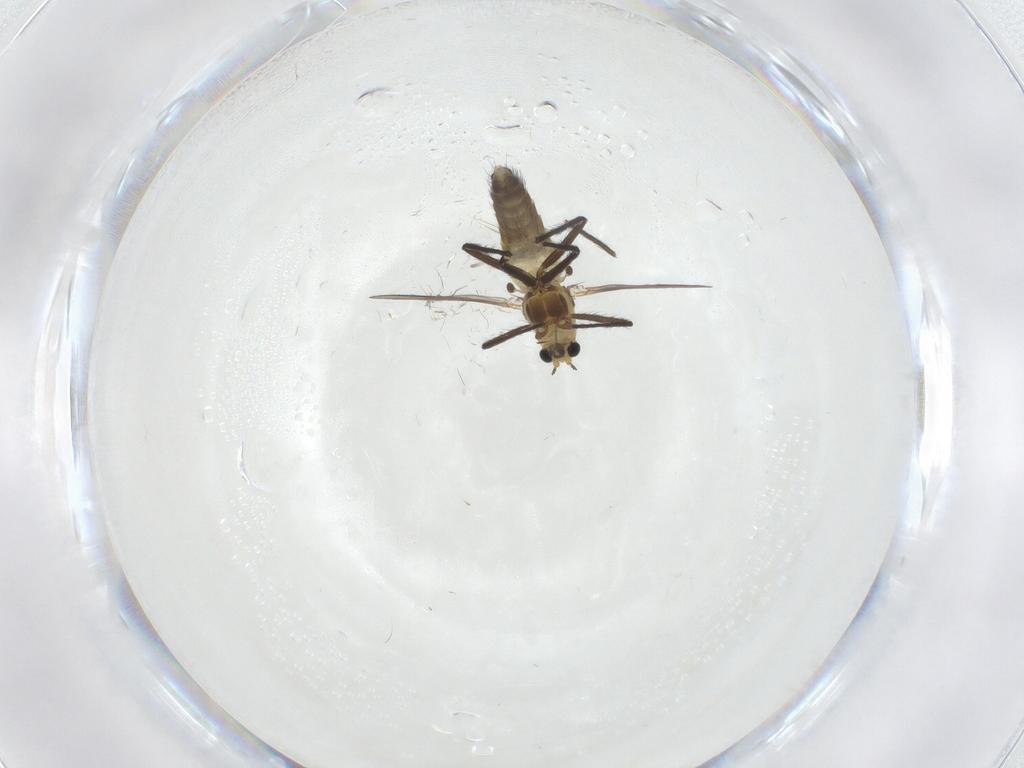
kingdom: Animalia
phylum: Arthropoda
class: Insecta
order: Diptera
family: Chironomidae
